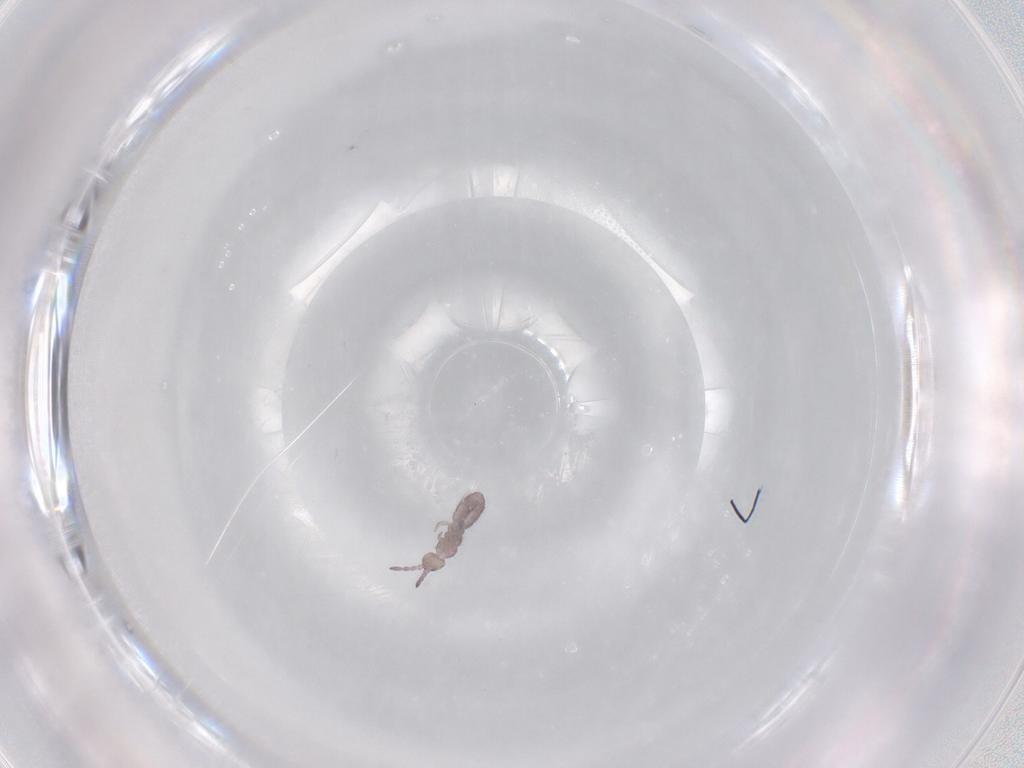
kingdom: Animalia
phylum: Arthropoda
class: Collembola
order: Entomobryomorpha
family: Isotomidae
